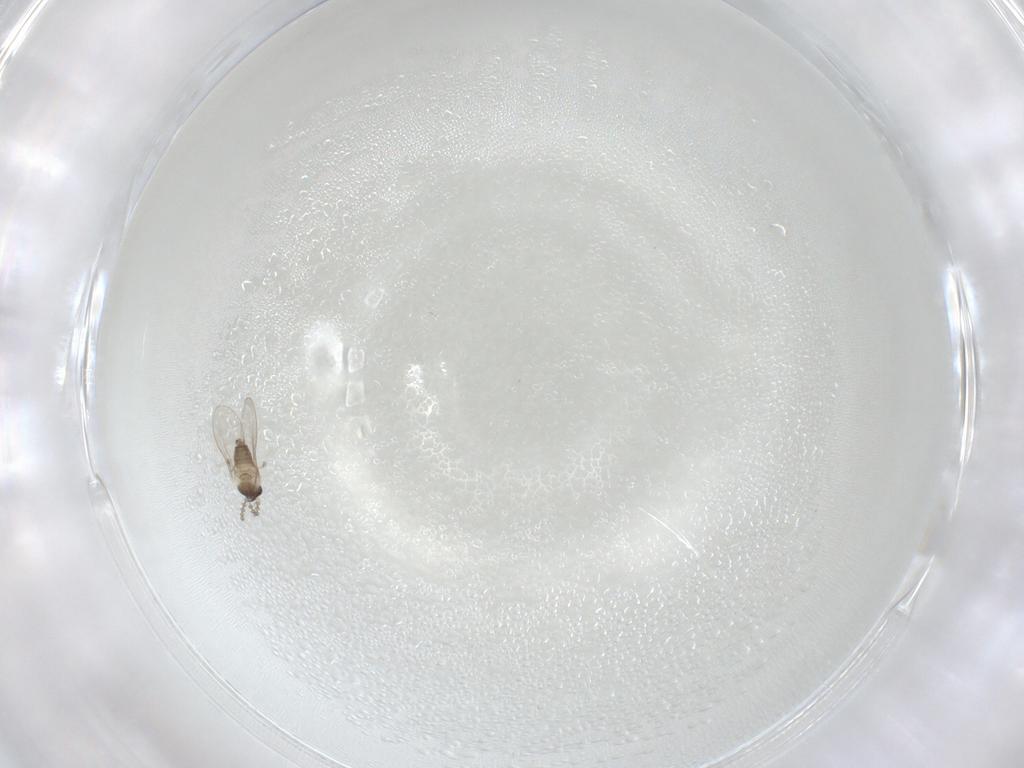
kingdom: Animalia
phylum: Arthropoda
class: Insecta
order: Diptera
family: Cecidomyiidae
